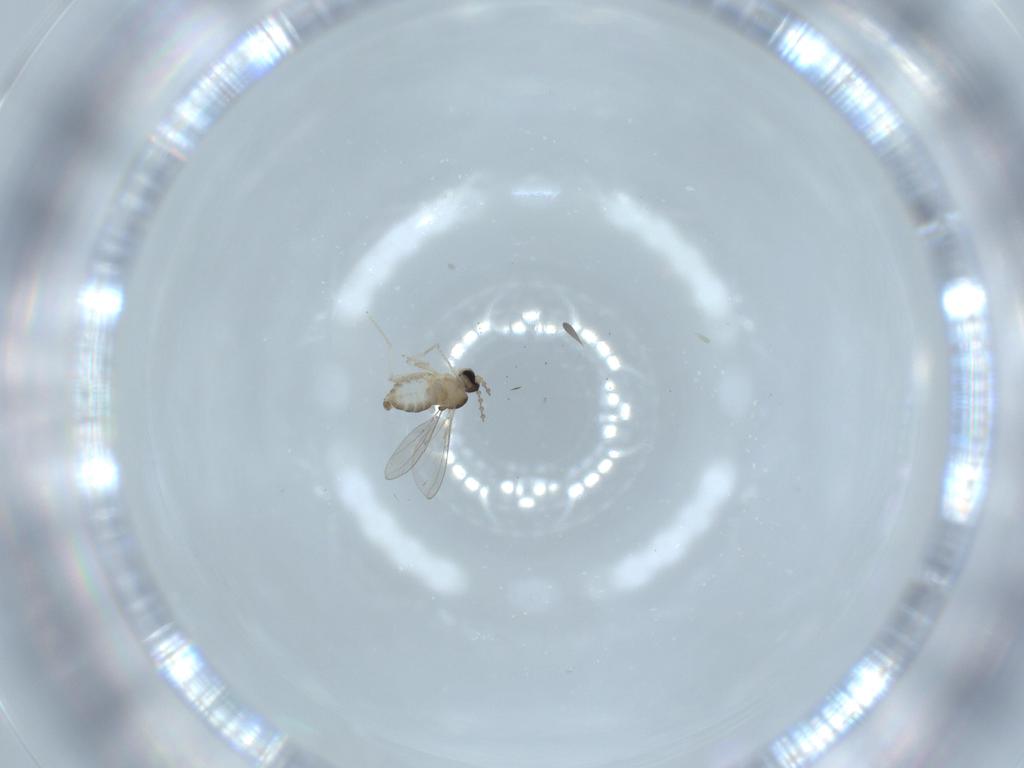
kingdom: Animalia
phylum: Arthropoda
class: Insecta
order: Diptera
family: Cecidomyiidae
